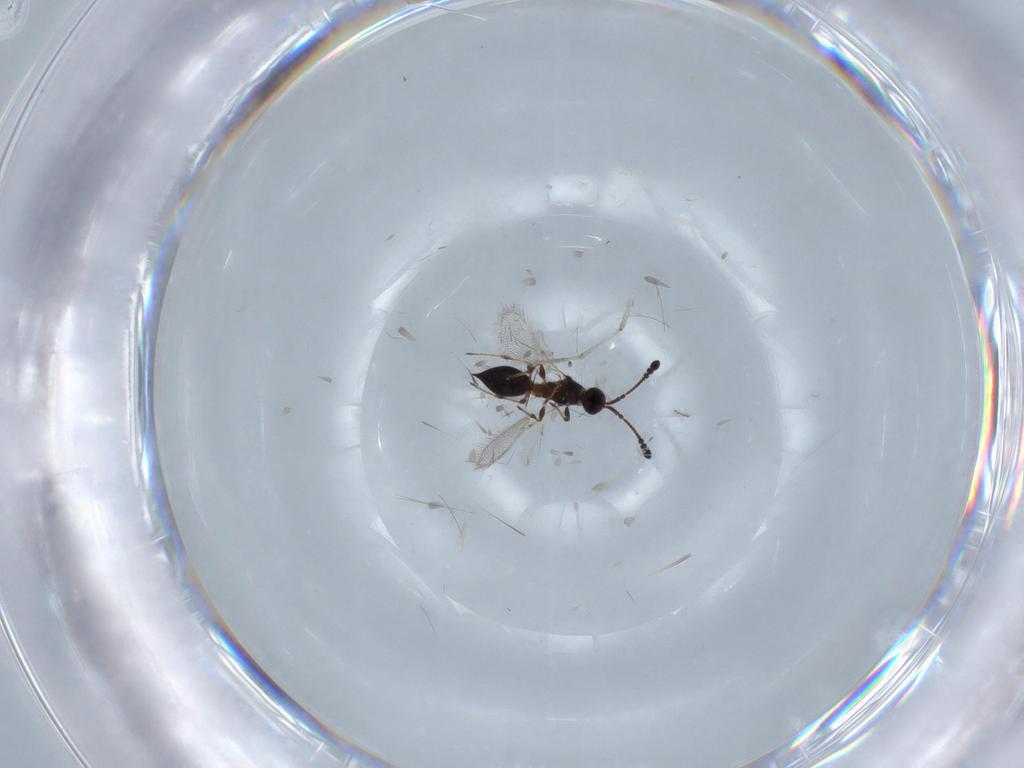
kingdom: Animalia
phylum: Arthropoda
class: Insecta
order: Hymenoptera
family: Diapriidae
